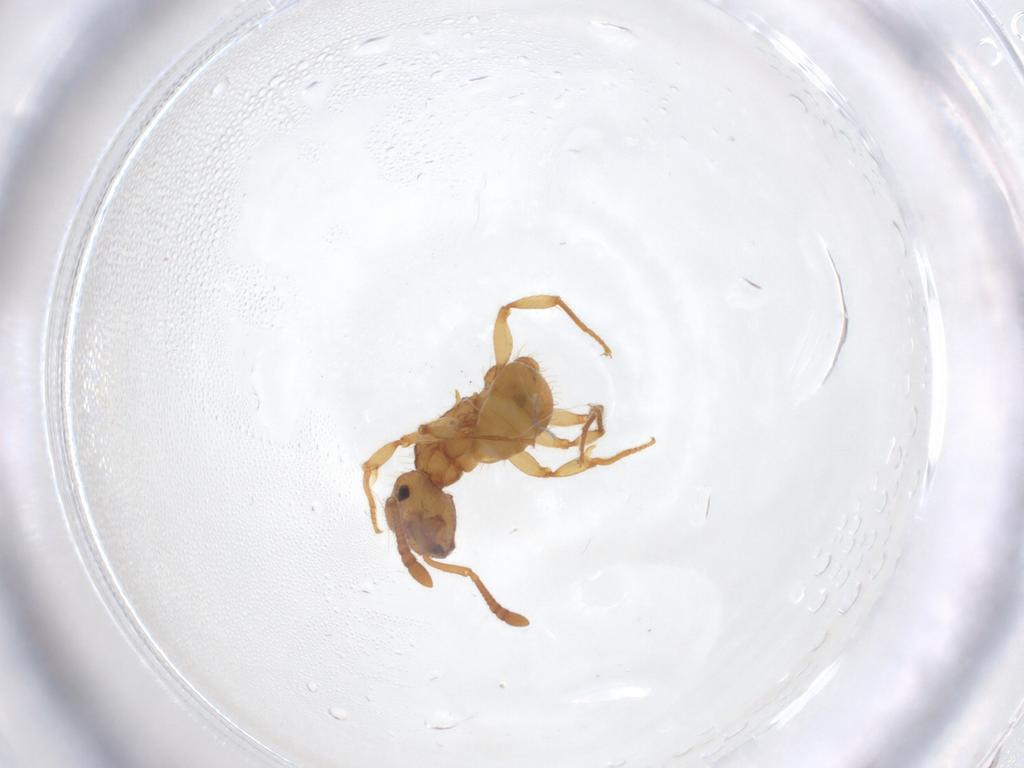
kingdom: Animalia
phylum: Arthropoda
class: Insecta
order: Hymenoptera
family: Formicidae
